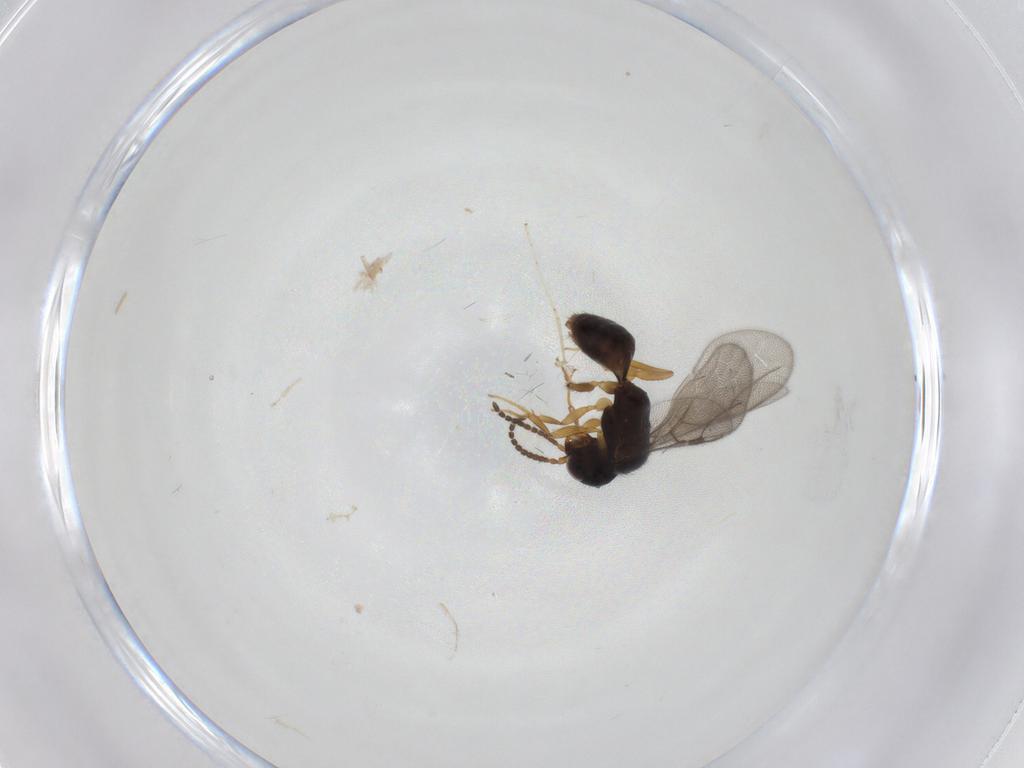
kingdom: Animalia
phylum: Arthropoda
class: Insecta
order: Hymenoptera
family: Bethylidae
